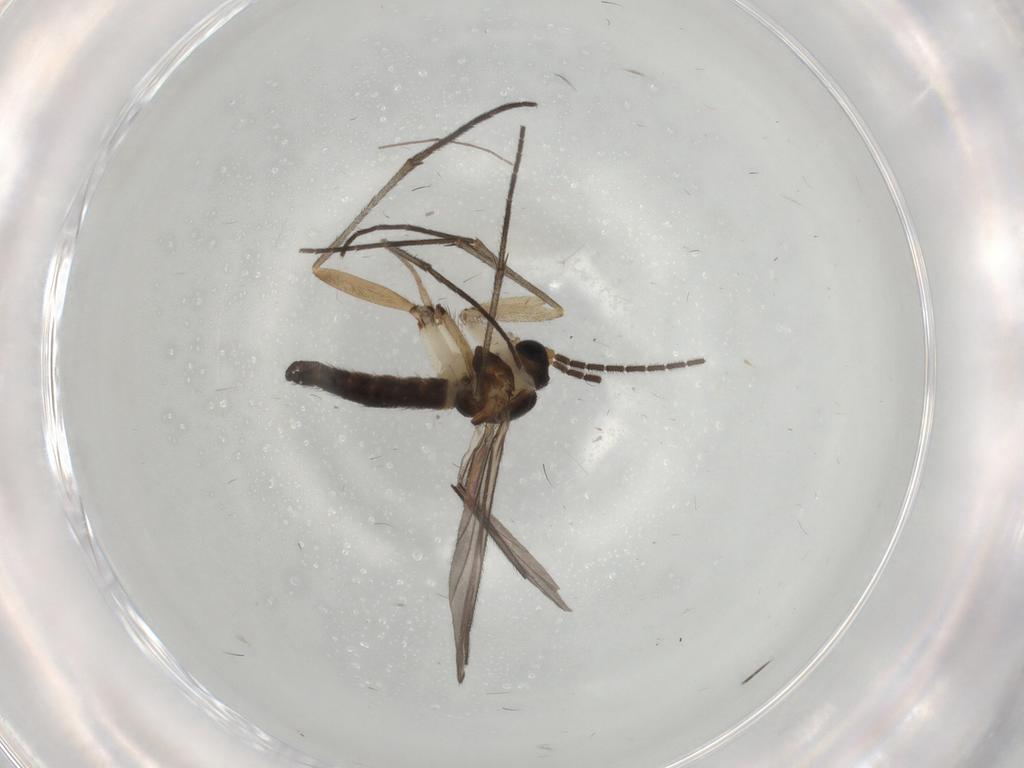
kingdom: Animalia
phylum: Arthropoda
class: Insecta
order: Diptera
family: Sciaridae
